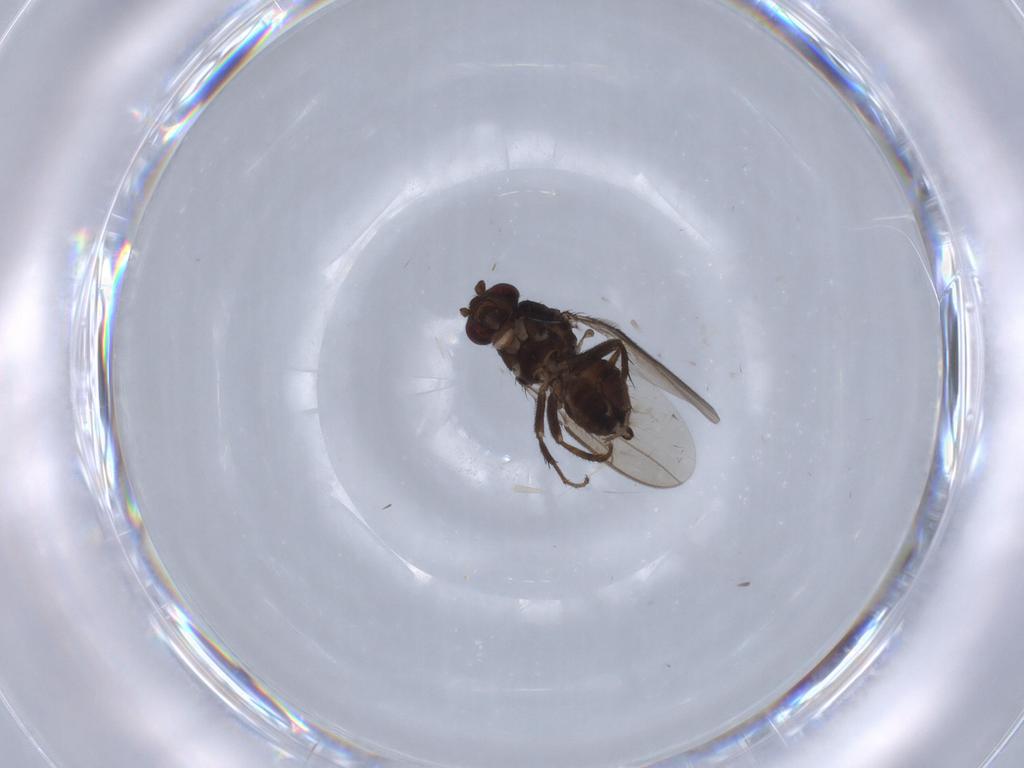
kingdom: Animalia
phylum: Arthropoda
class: Insecta
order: Diptera
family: Sphaeroceridae
